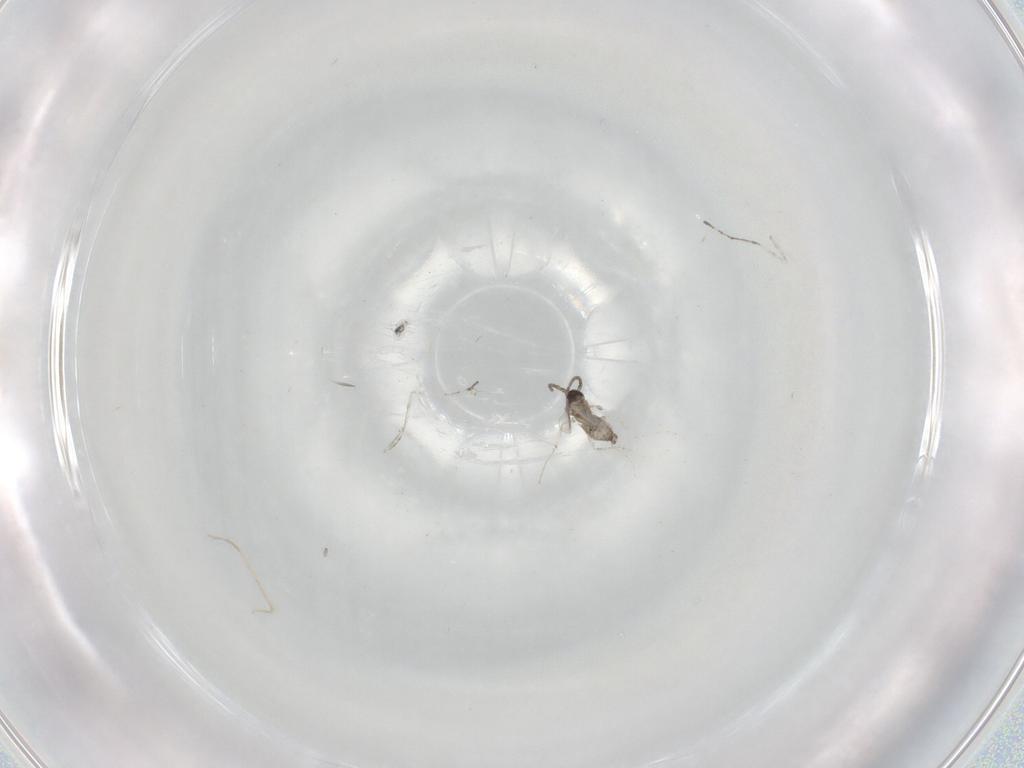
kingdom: Animalia
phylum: Arthropoda
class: Insecta
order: Diptera
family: Cecidomyiidae
